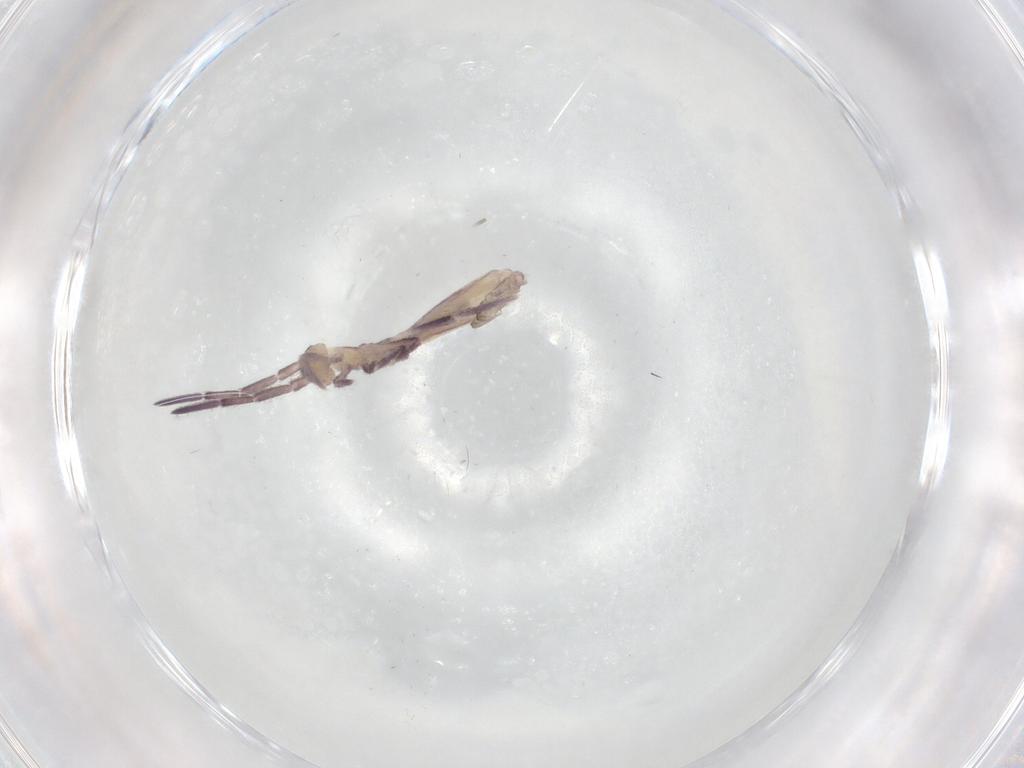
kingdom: Animalia
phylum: Arthropoda
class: Collembola
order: Entomobryomorpha
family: Entomobryidae
